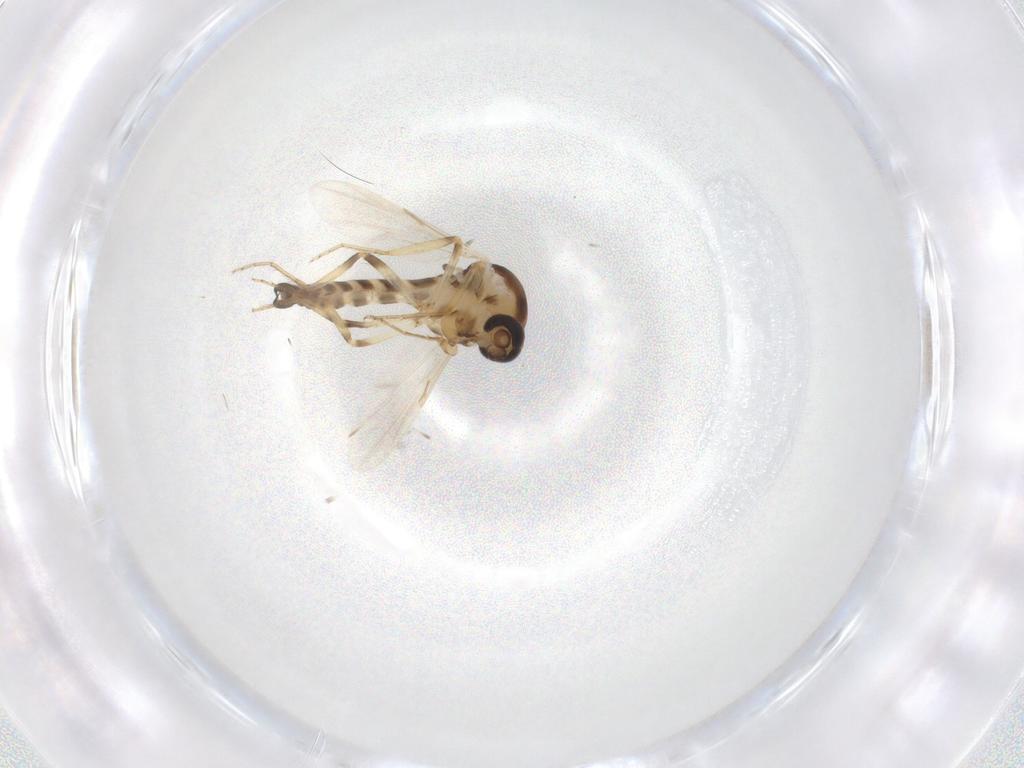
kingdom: Animalia
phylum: Arthropoda
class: Insecta
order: Diptera
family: Ceratopogonidae
